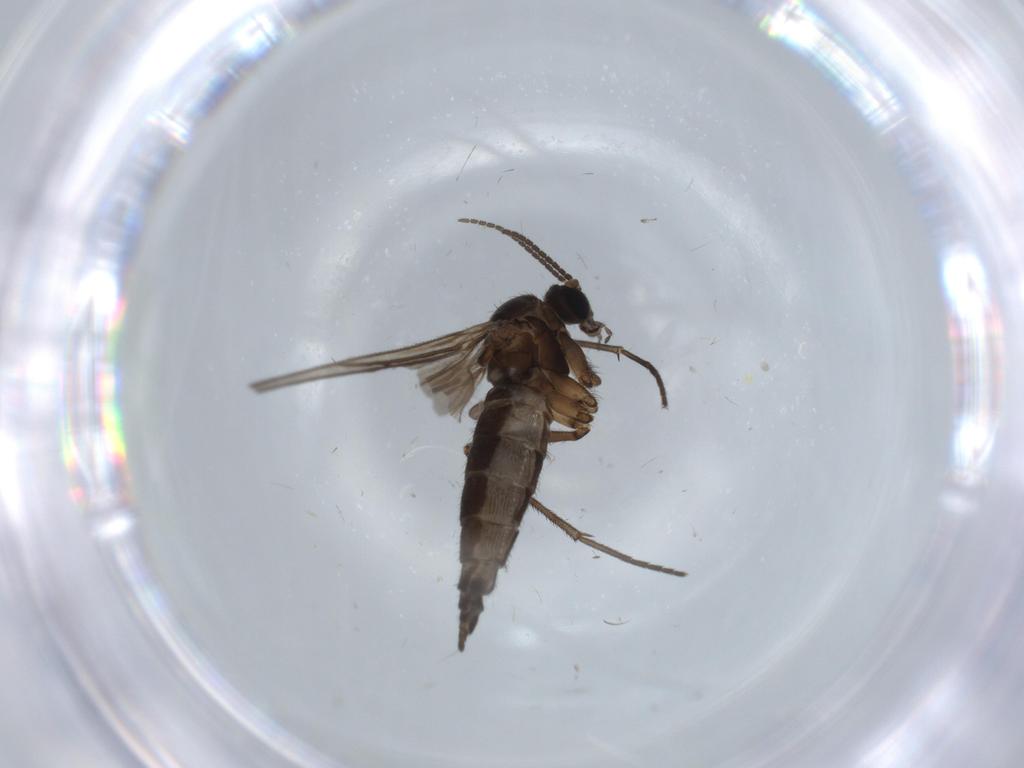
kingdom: Animalia
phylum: Arthropoda
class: Insecta
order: Diptera
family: Sciaridae
